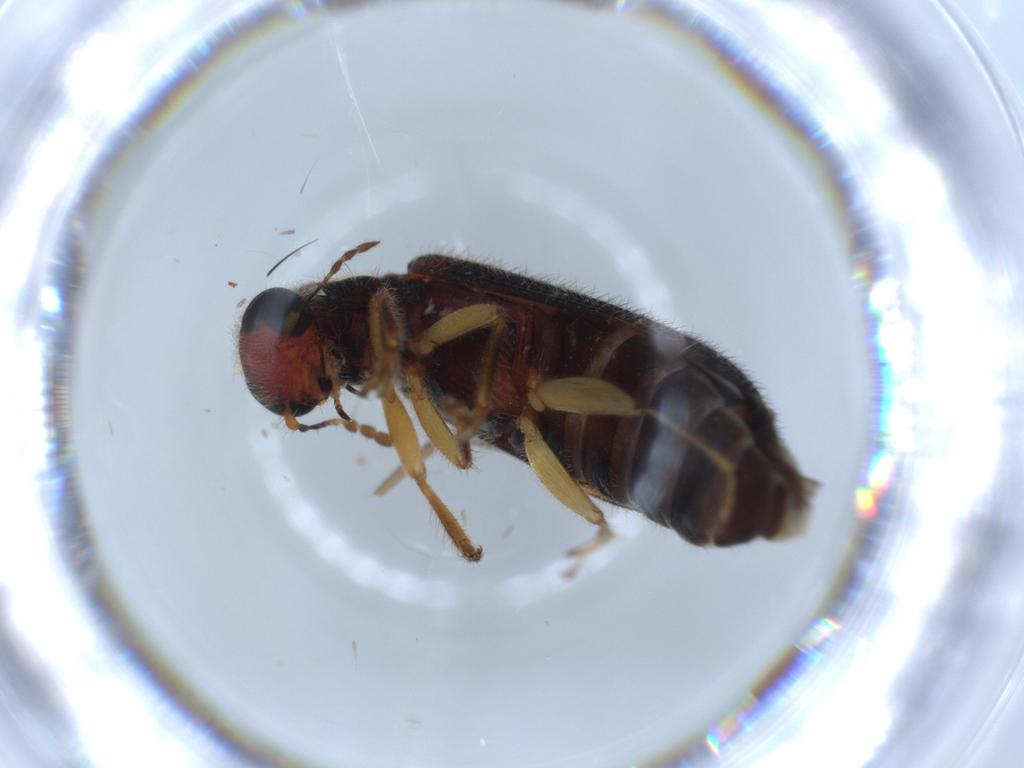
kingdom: Animalia
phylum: Arthropoda
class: Insecta
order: Coleoptera
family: Cleridae
